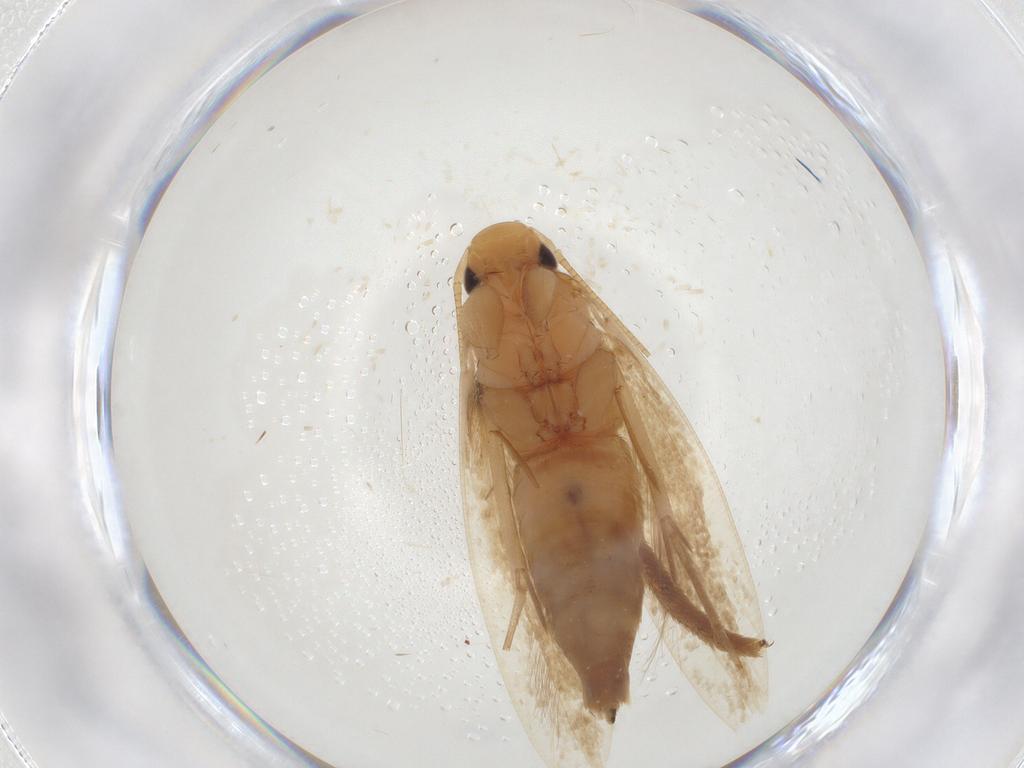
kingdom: Animalia
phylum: Arthropoda
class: Insecta
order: Lepidoptera
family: Tineidae
